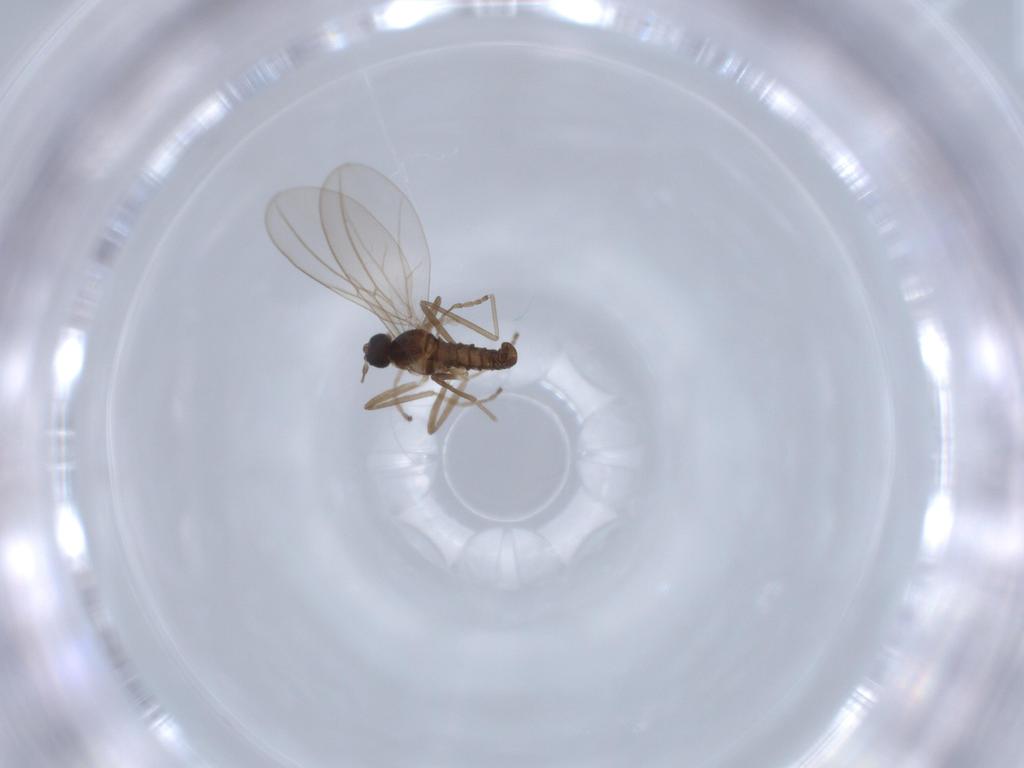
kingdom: Animalia
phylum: Arthropoda
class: Insecta
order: Diptera
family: Empididae
